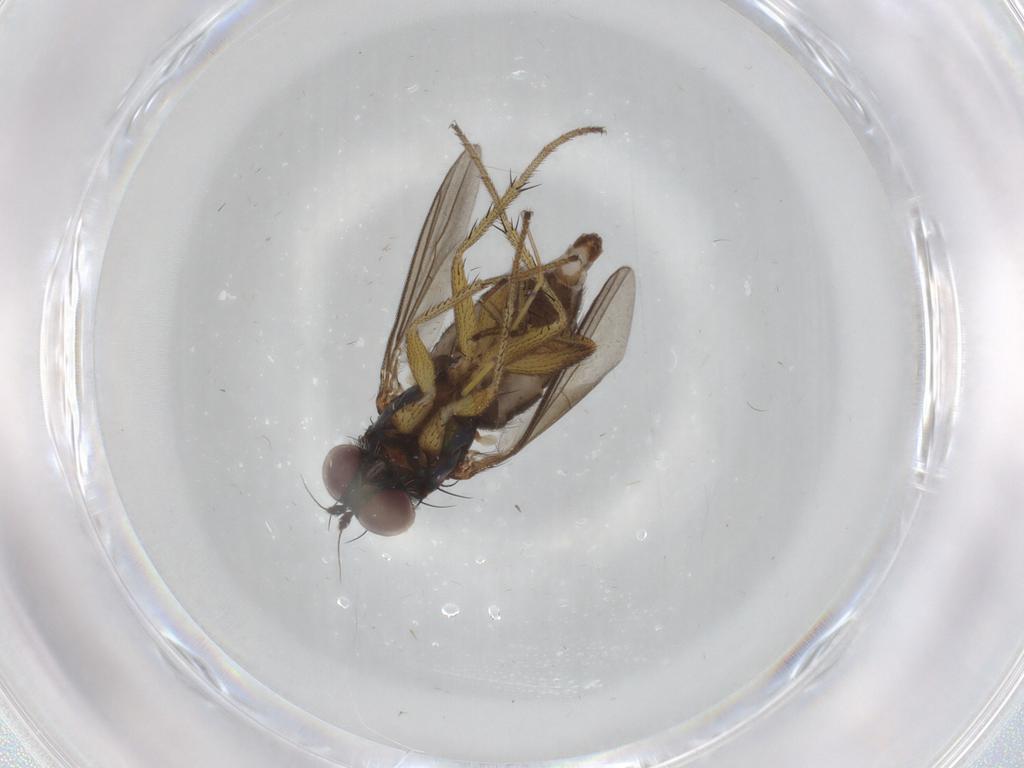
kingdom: Animalia
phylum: Arthropoda
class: Insecta
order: Diptera
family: Dolichopodidae
